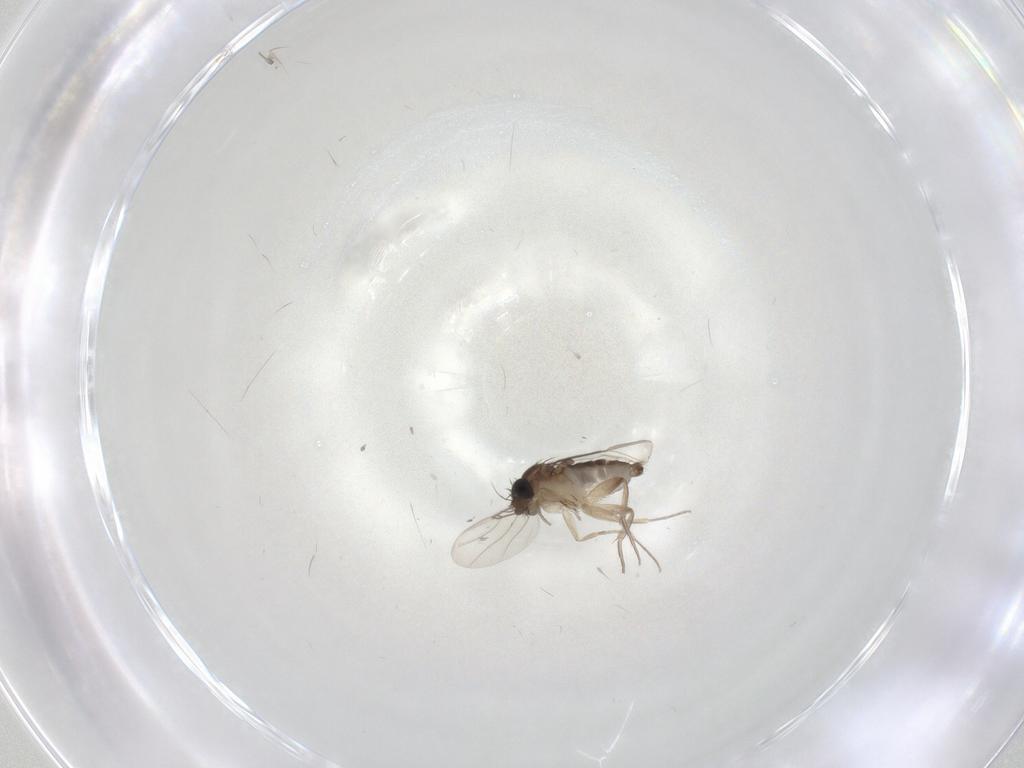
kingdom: Animalia
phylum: Arthropoda
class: Insecta
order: Diptera
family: Phoridae
